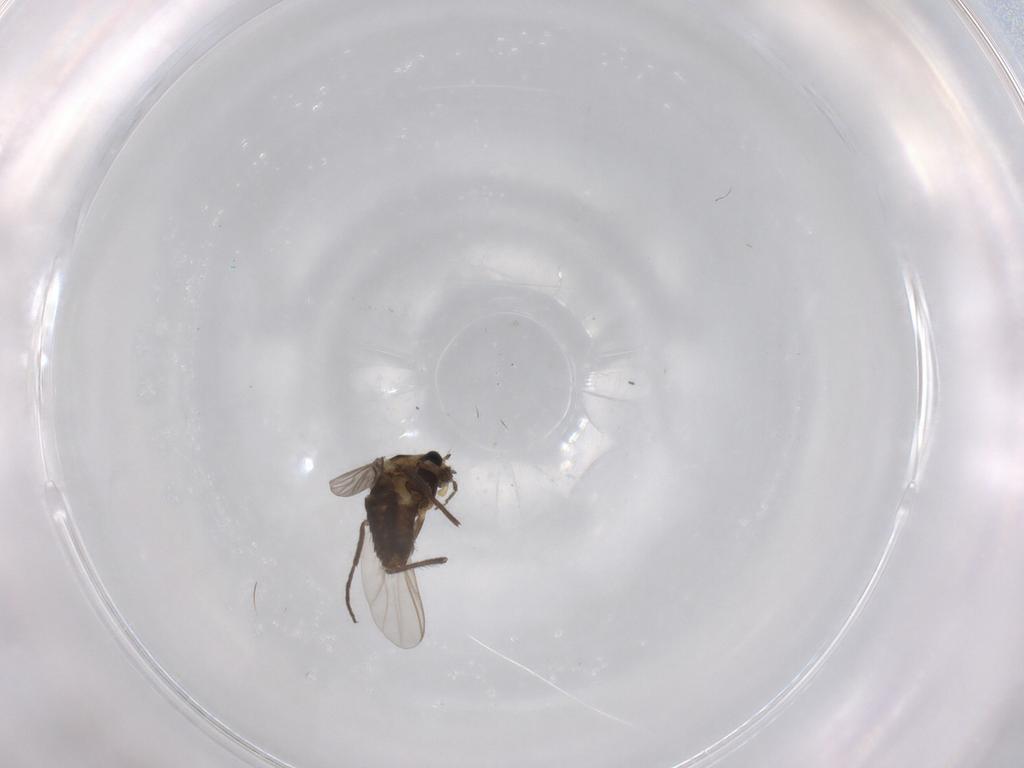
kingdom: Animalia
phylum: Arthropoda
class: Insecta
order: Diptera
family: Chironomidae
